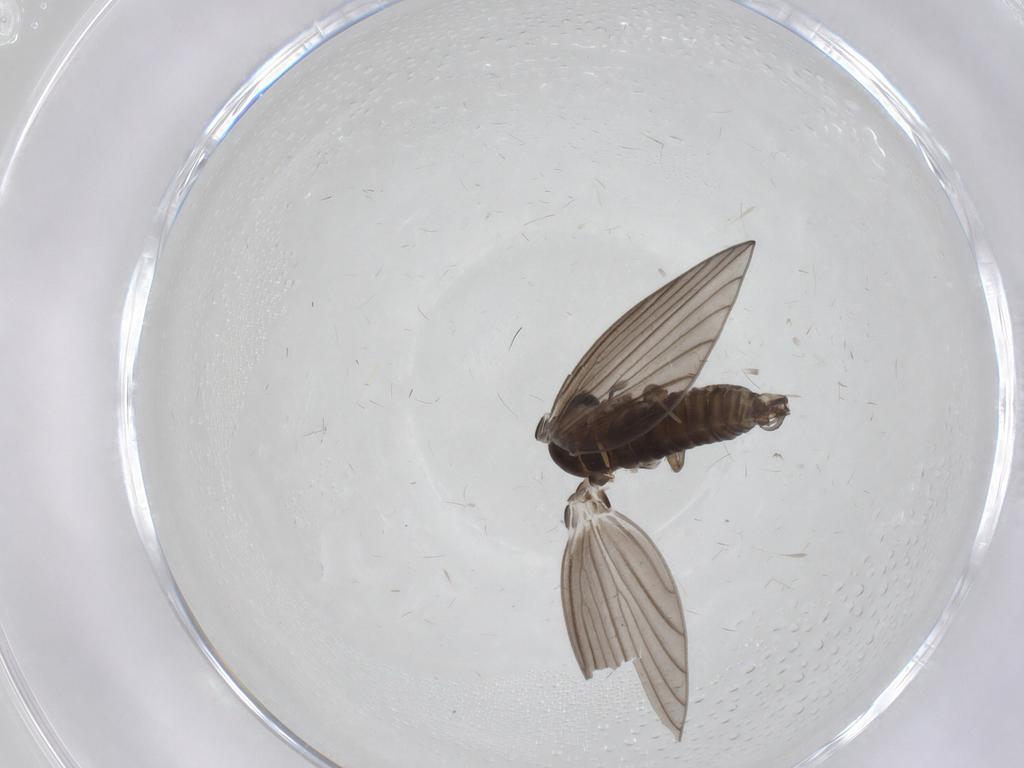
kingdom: Animalia
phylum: Arthropoda
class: Insecta
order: Diptera
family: Psychodidae
